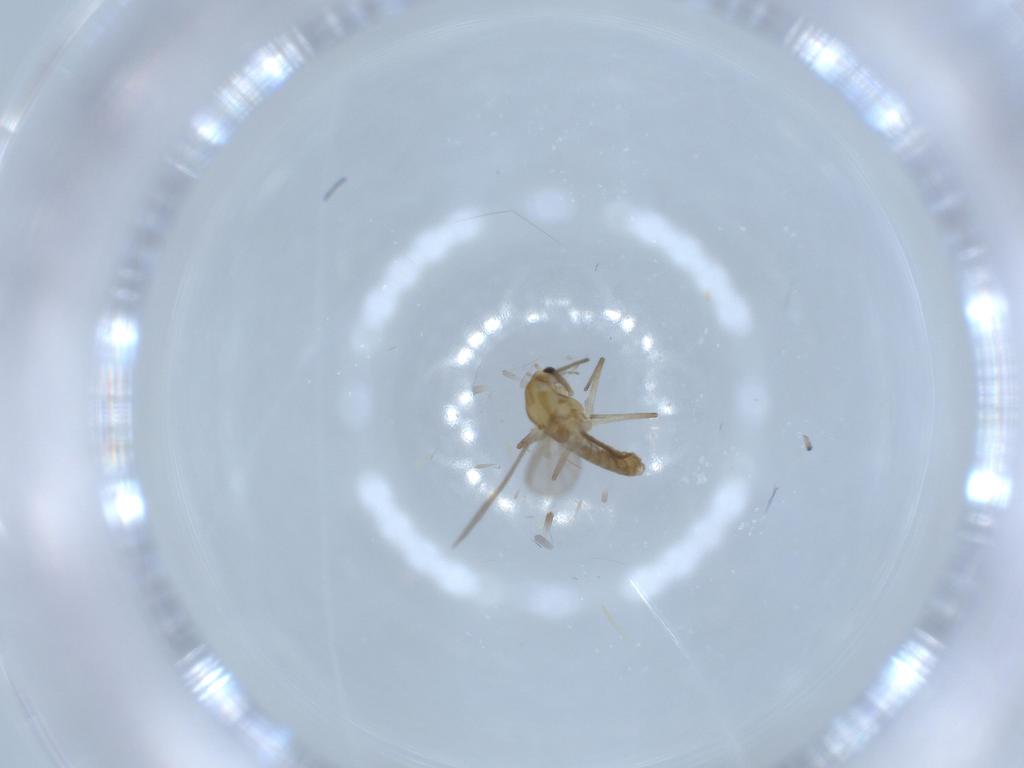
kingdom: Animalia
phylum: Arthropoda
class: Insecta
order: Diptera
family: Chironomidae
